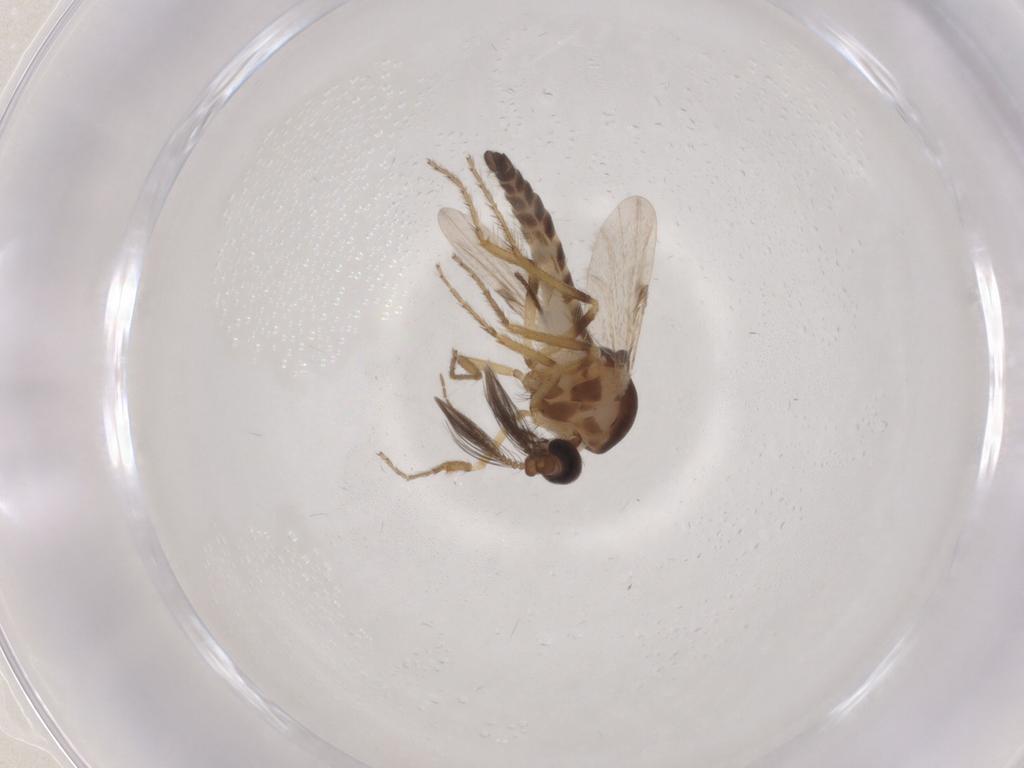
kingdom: Animalia
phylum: Arthropoda
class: Insecta
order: Diptera
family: Ceratopogonidae
